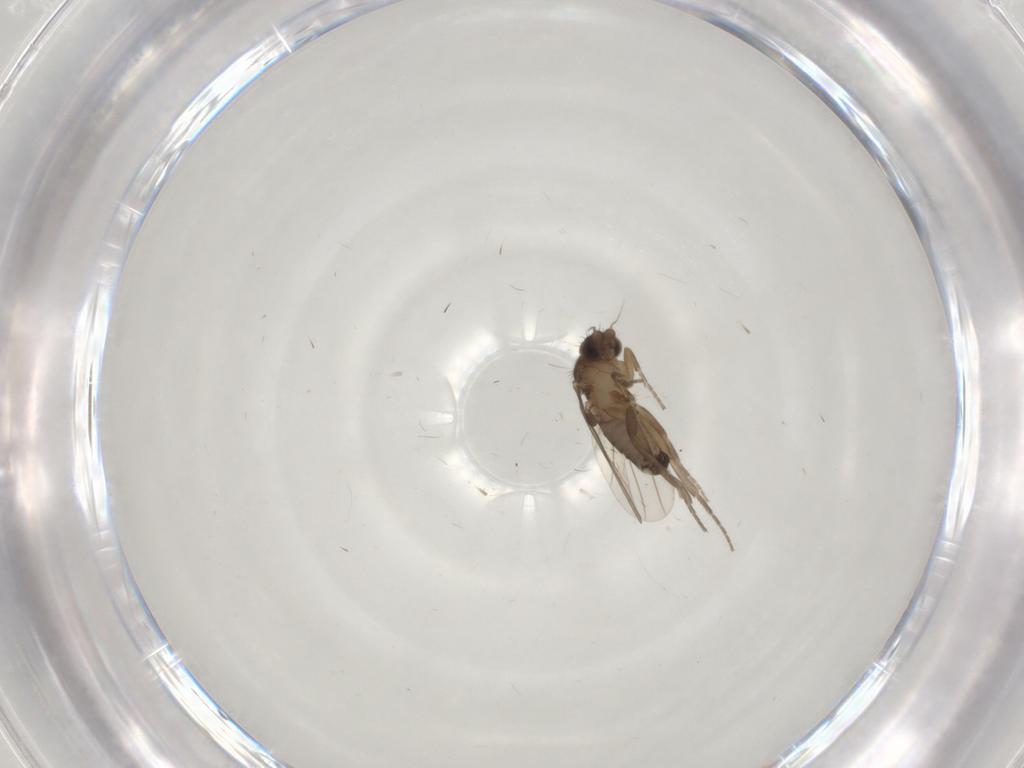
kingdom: Animalia
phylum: Arthropoda
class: Insecta
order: Diptera
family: Phoridae
